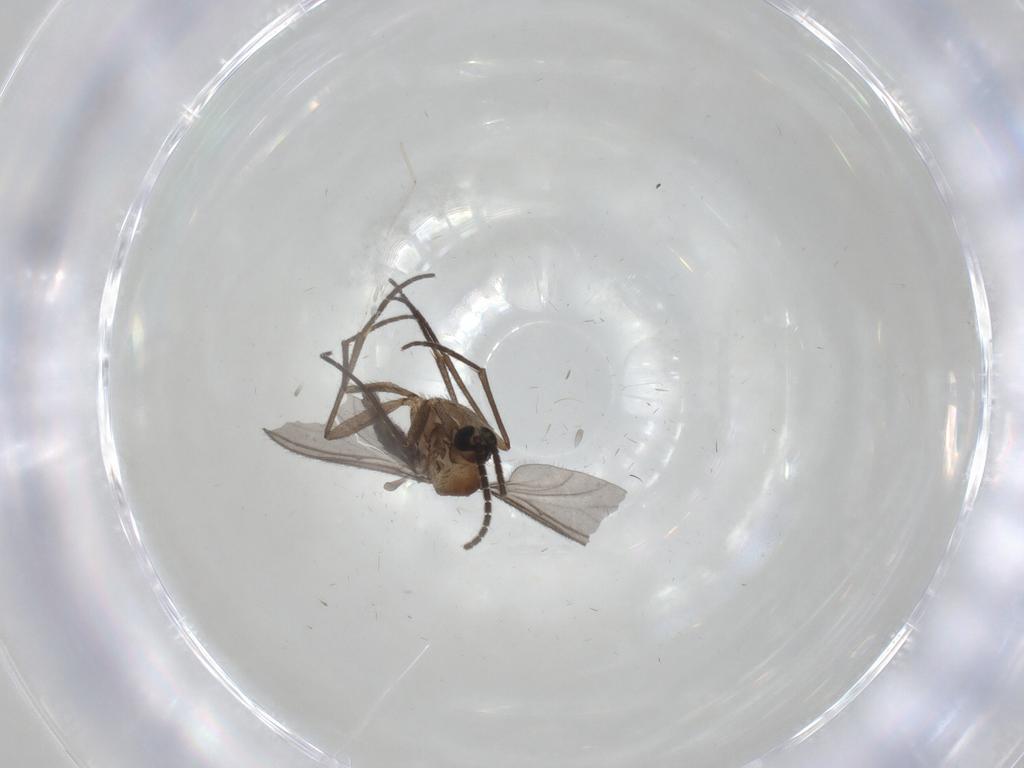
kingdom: Animalia
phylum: Arthropoda
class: Insecta
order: Diptera
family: Sciaridae
